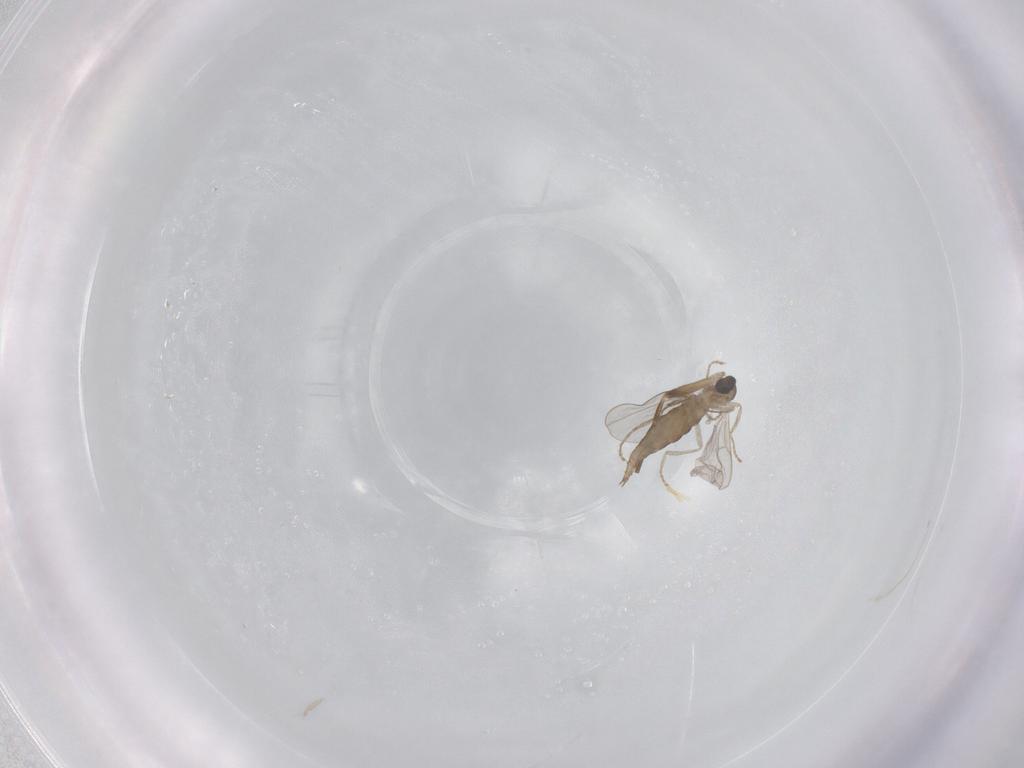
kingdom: Animalia
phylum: Arthropoda
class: Insecta
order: Diptera
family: Cecidomyiidae
